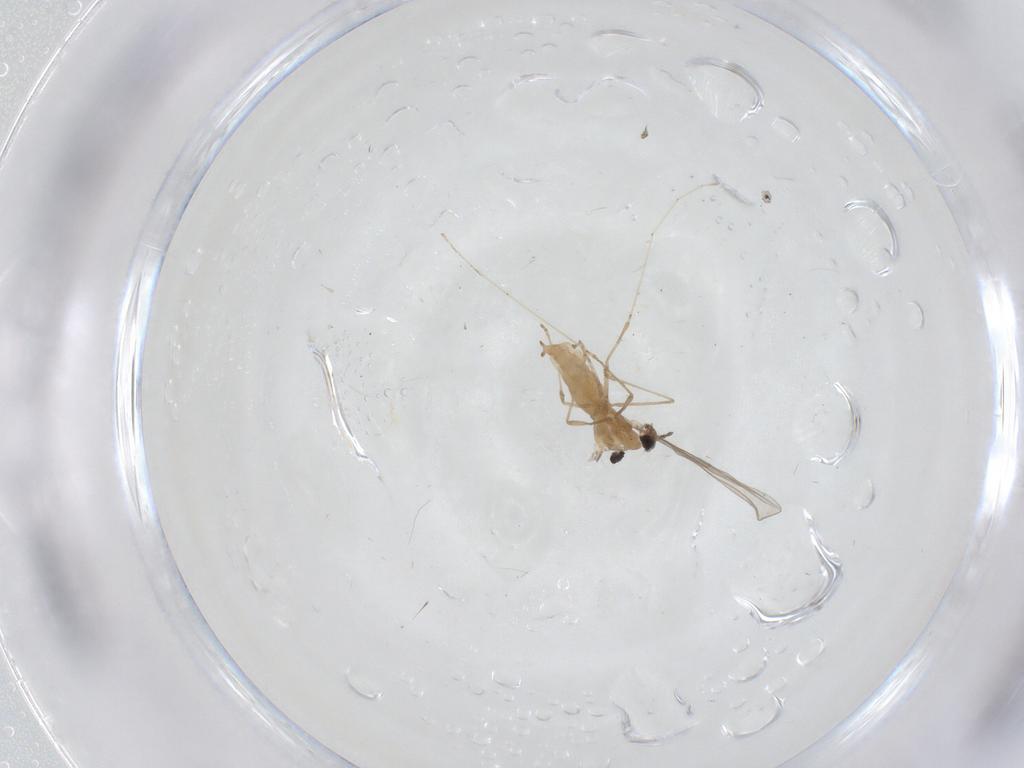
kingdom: Animalia
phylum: Arthropoda
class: Insecta
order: Diptera
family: Cecidomyiidae
